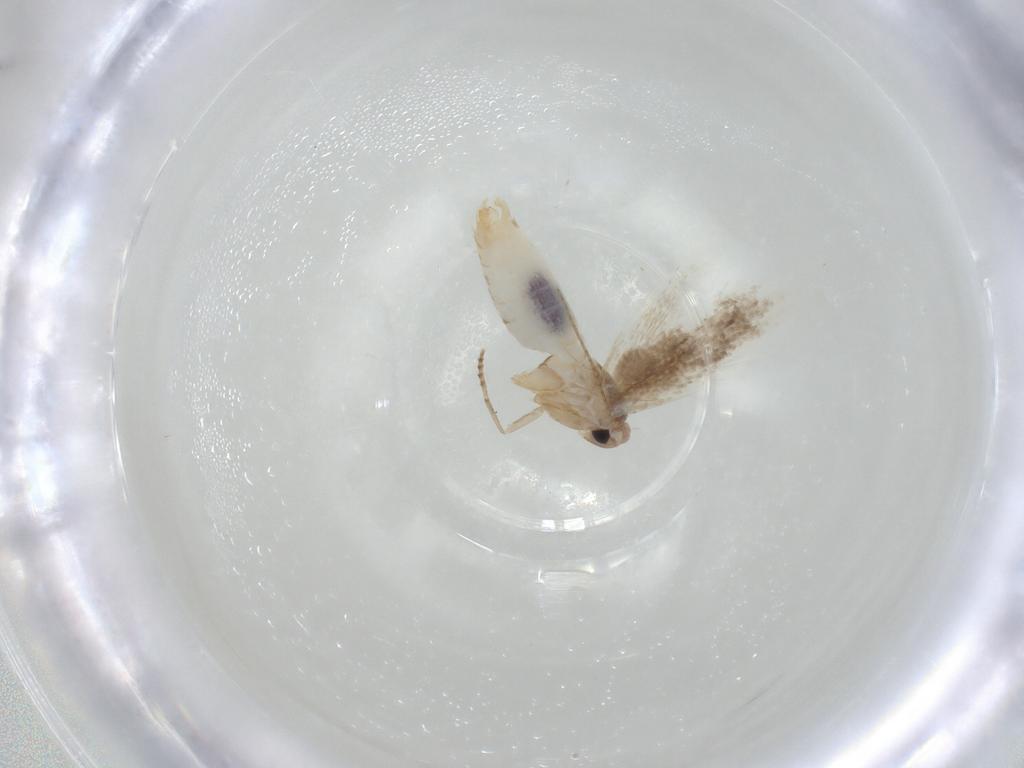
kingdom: Animalia
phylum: Arthropoda
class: Insecta
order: Lepidoptera
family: Bucculatricidae
